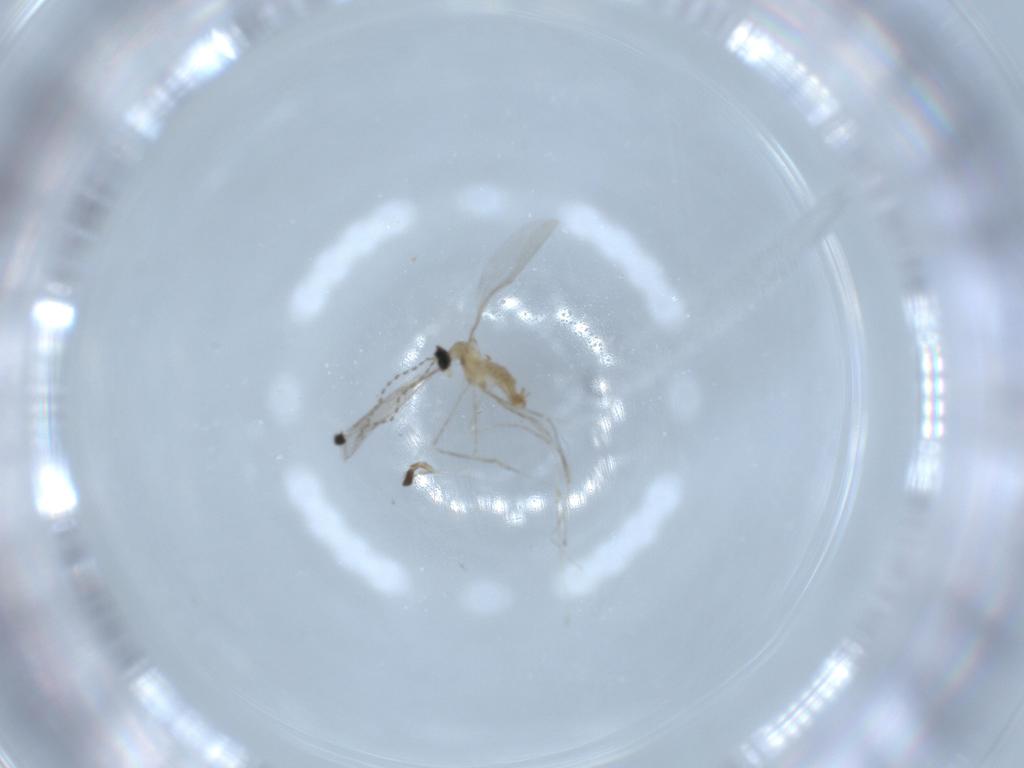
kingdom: Animalia
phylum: Arthropoda
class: Insecta
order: Diptera
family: Cecidomyiidae
